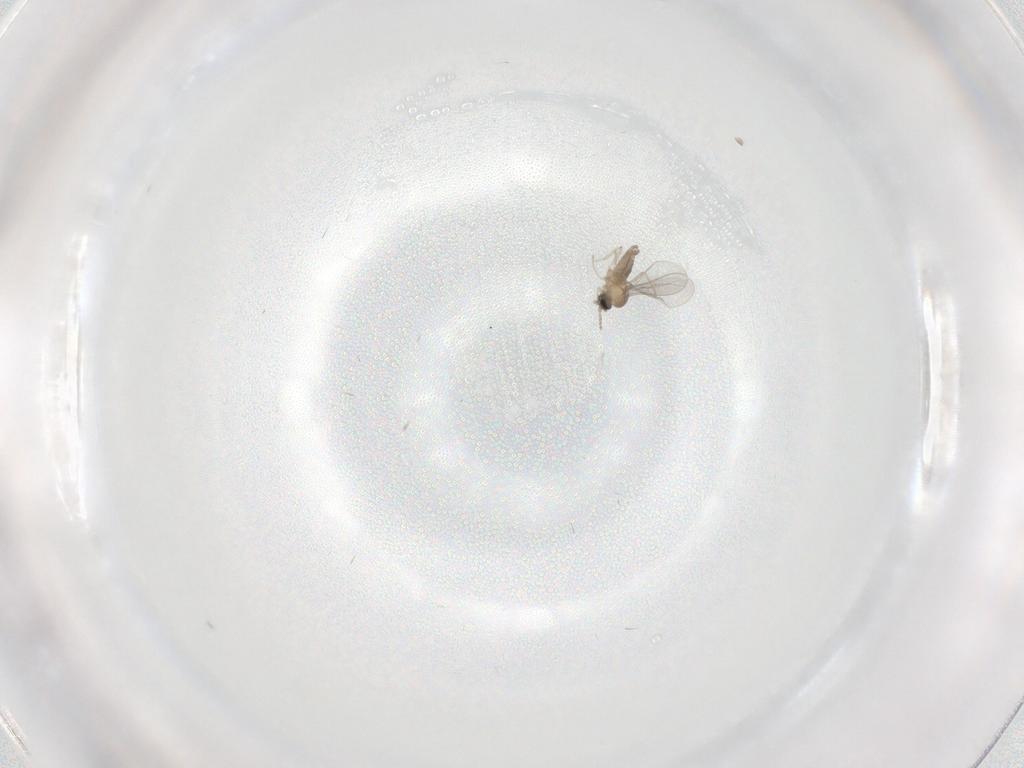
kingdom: Animalia
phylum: Arthropoda
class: Insecta
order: Diptera
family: Cecidomyiidae
